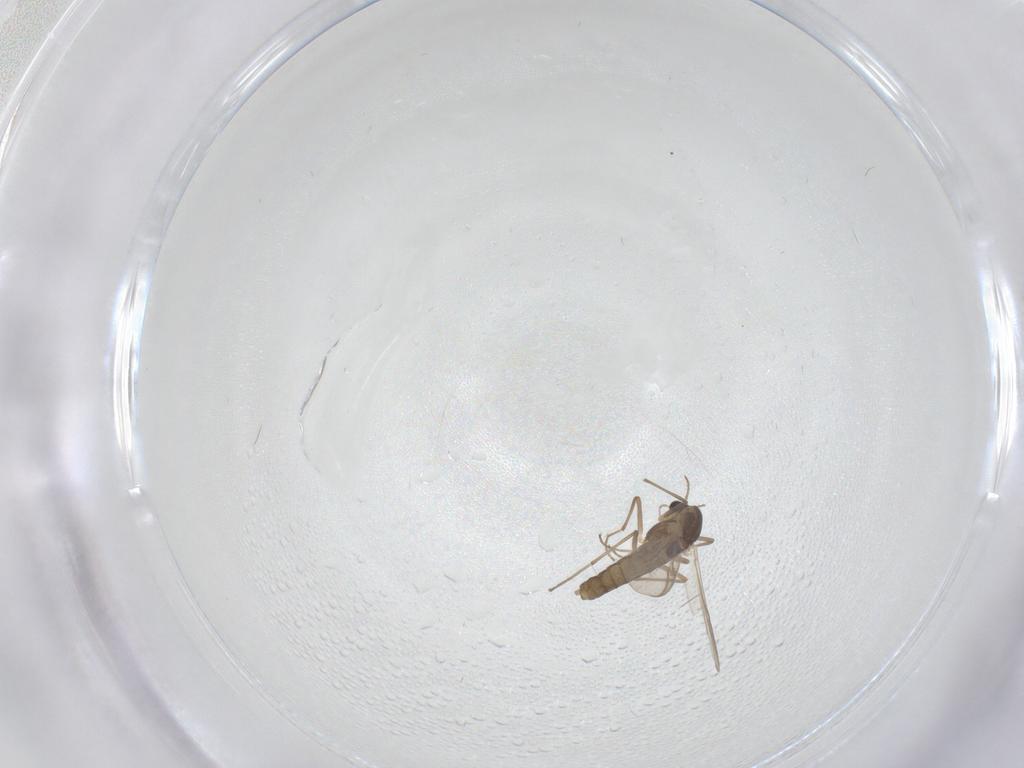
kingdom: Animalia
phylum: Arthropoda
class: Insecta
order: Diptera
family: Chironomidae
